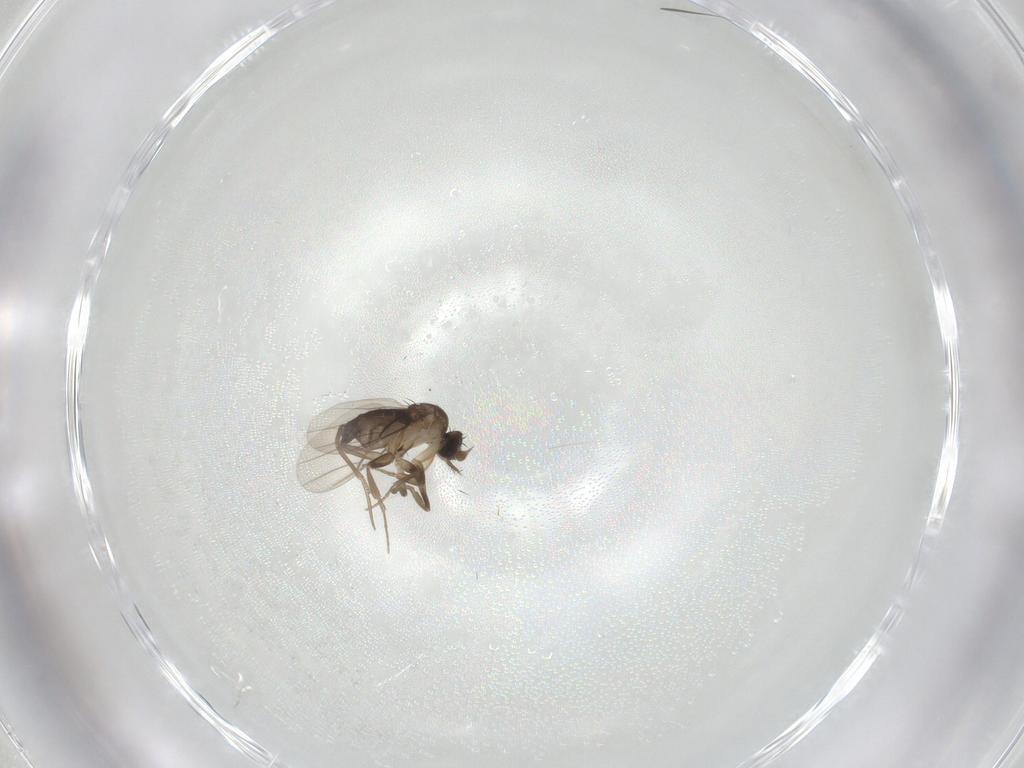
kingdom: Animalia
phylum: Arthropoda
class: Insecta
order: Diptera
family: Phoridae
